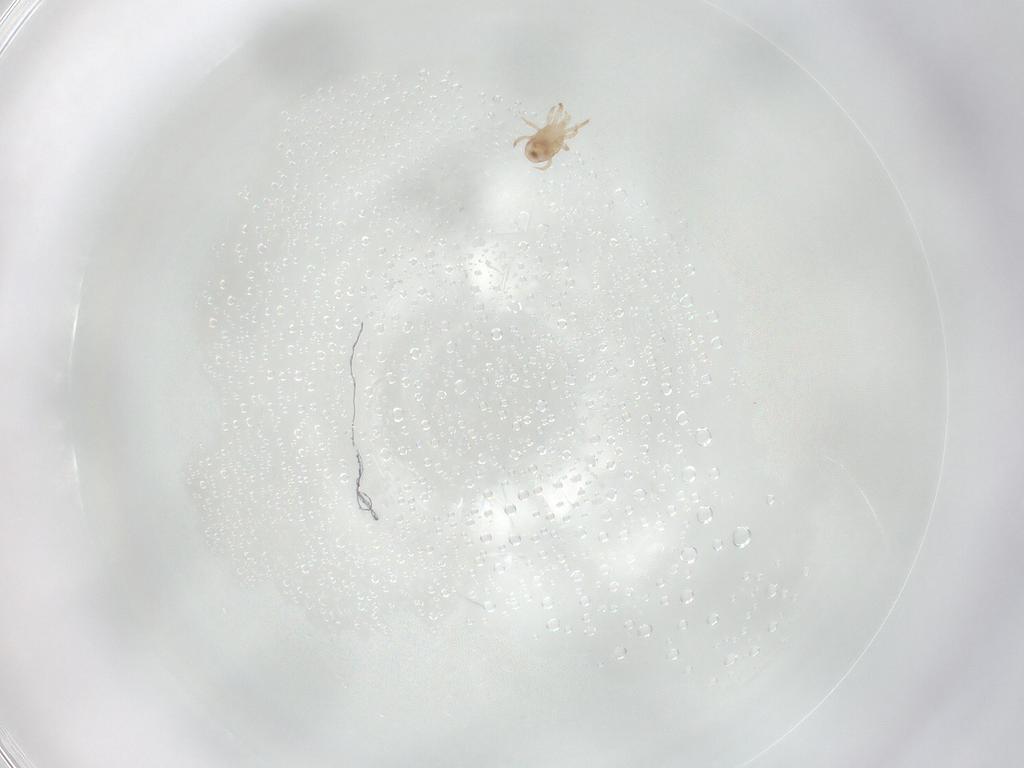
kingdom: Animalia
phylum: Arthropoda
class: Arachnida
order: Mesostigmata
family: Phytoseiidae
